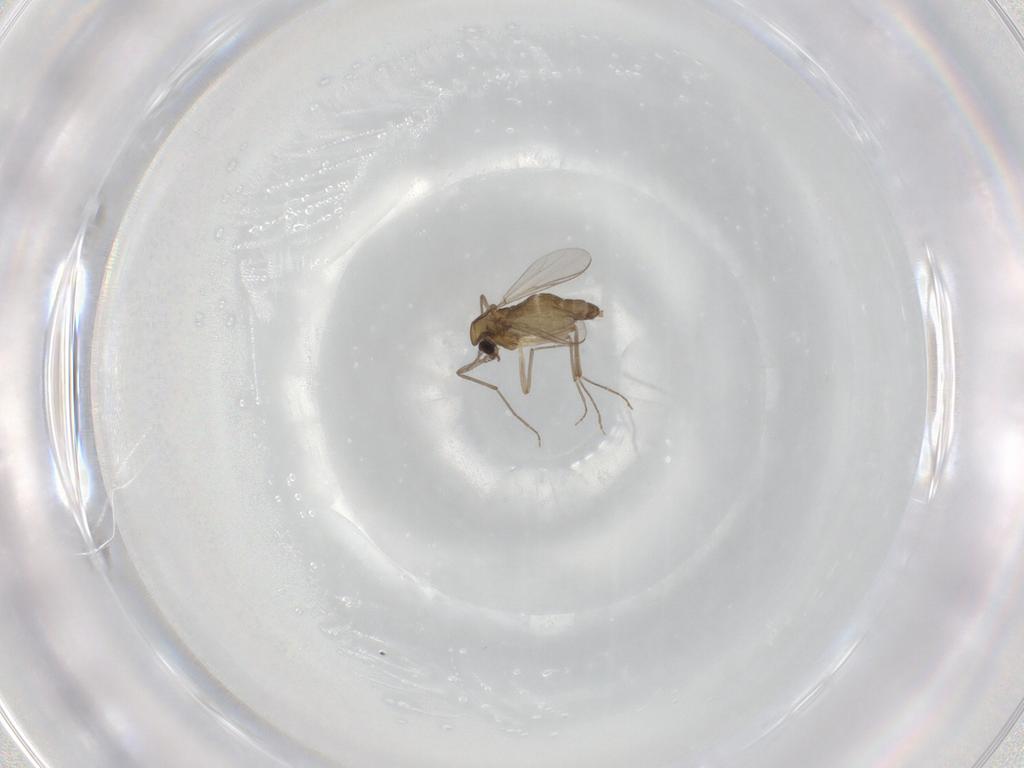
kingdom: Animalia
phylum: Arthropoda
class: Insecta
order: Diptera
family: Chironomidae
